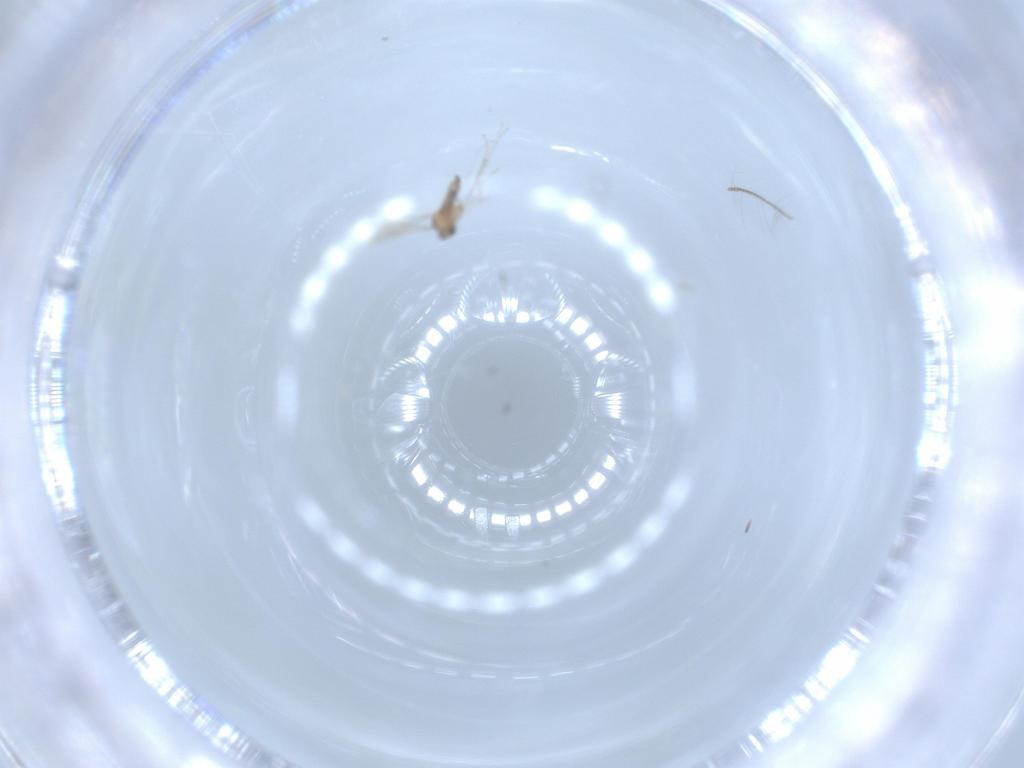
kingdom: Animalia
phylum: Arthropoda
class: Insecta
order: Diptera
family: Cecidomyiidae
